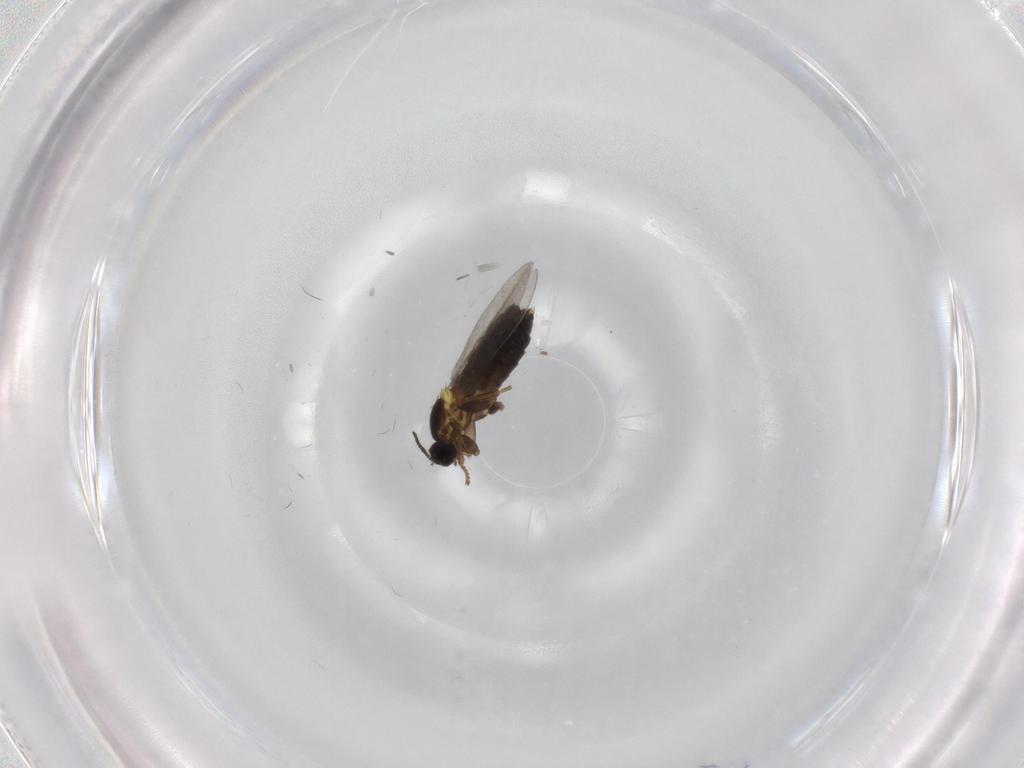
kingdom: Animalia
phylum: Arthropoda
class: Insecta
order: Diptera
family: Scatopsidae
